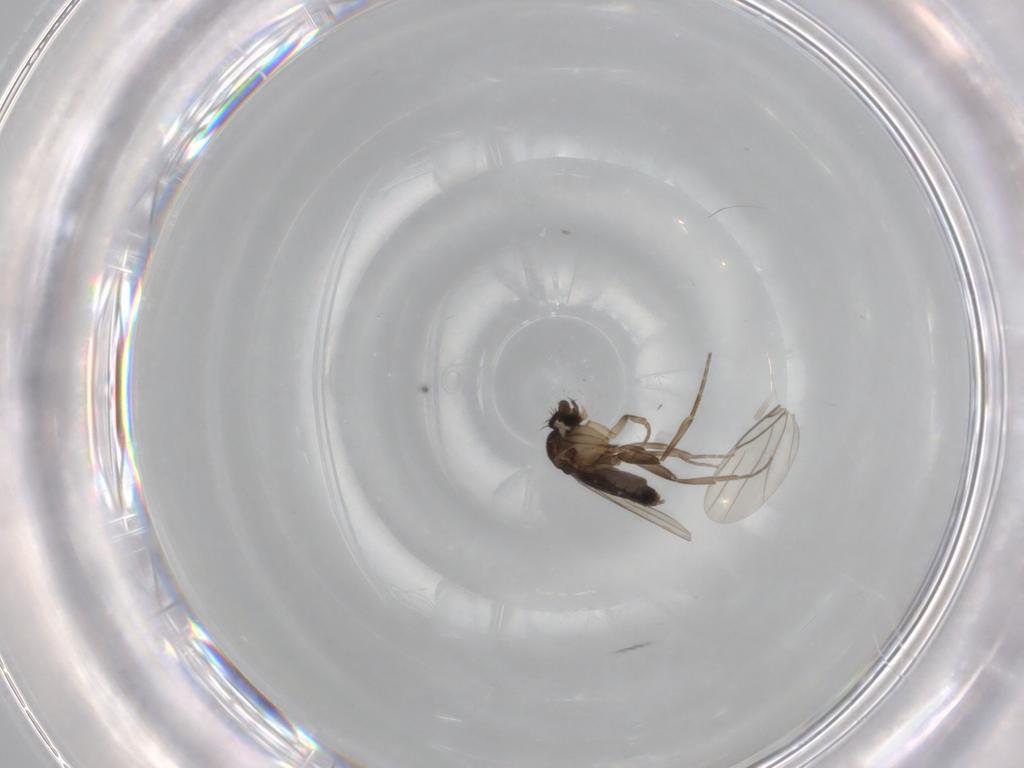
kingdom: Animalia
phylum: Arthropoda
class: Insecta
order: Diptera
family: Phoridae
